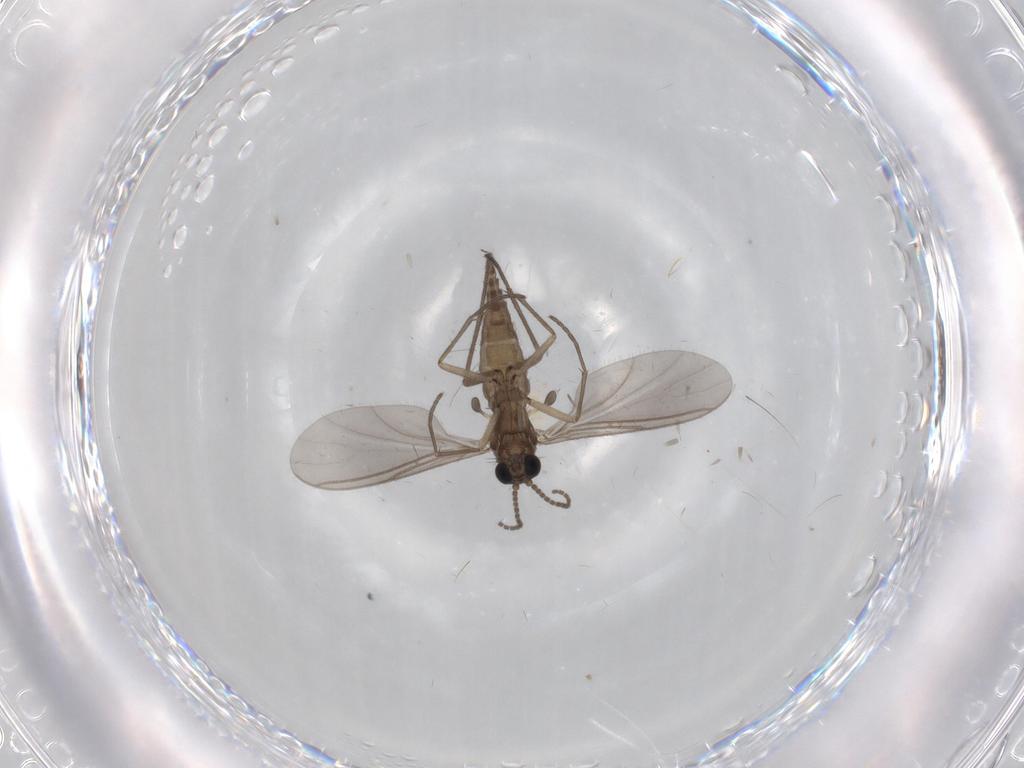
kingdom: Animalia
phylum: Arthropoda
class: Insecta
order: Diptera
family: Sciaridae
